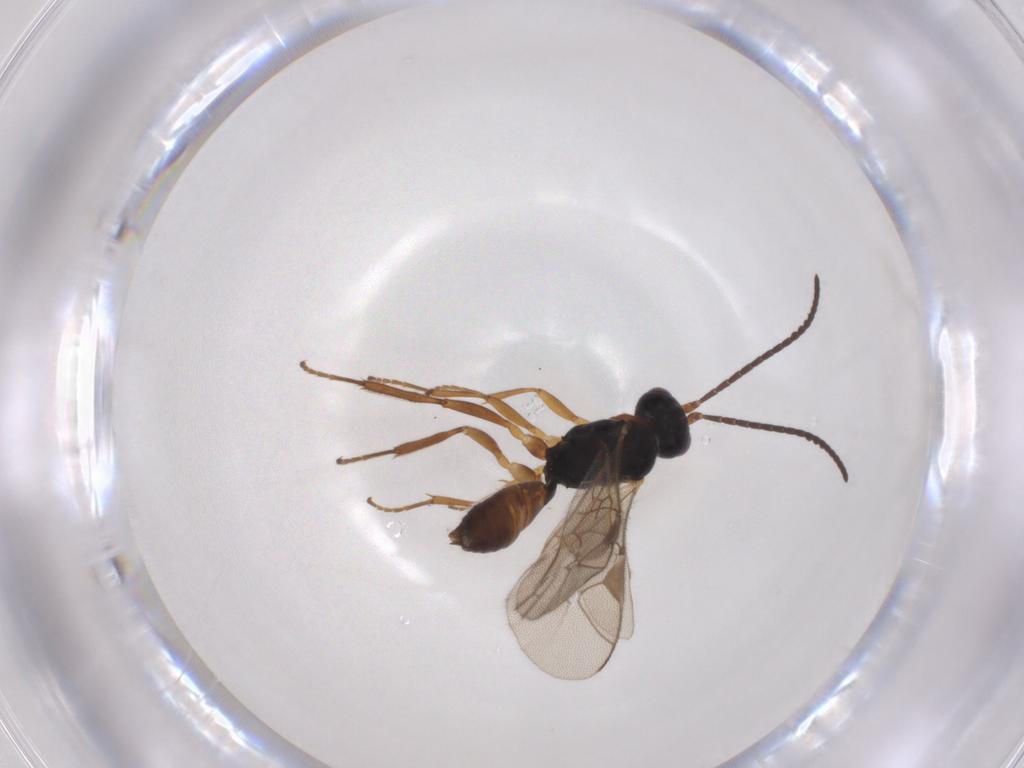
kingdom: Animalia
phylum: Arthropoda
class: Insecta
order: Hymenoptera
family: Ichneumonidae
